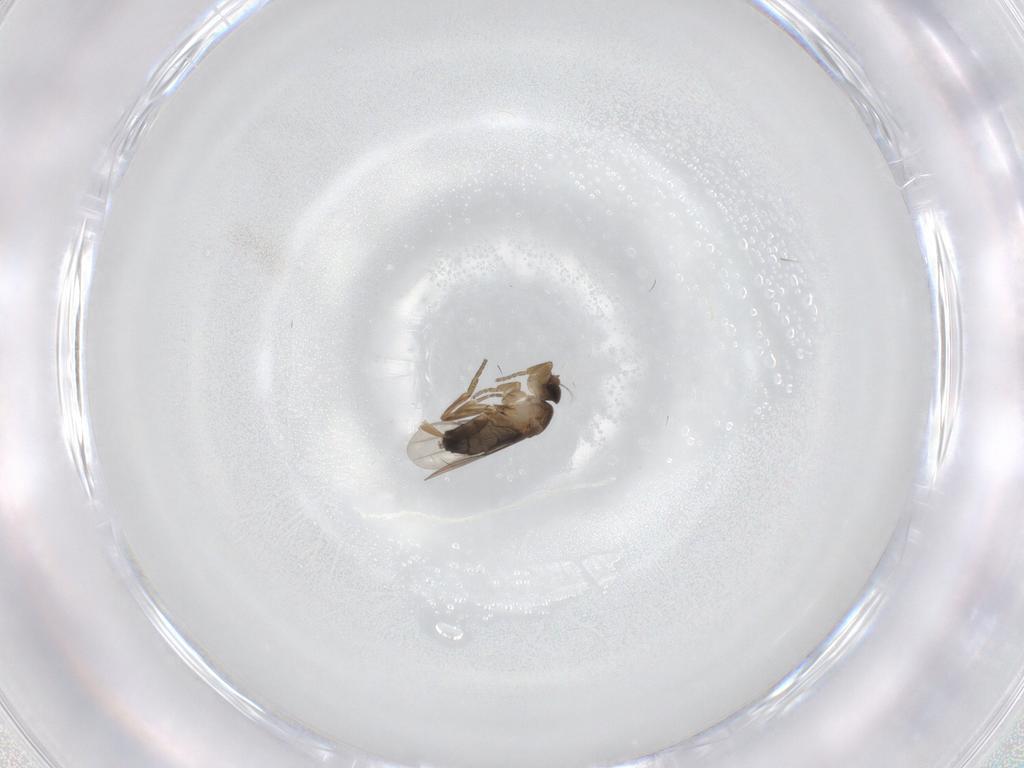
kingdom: Animalia
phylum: Arthropoda
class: Insecta
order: Diptera
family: Phoridae
